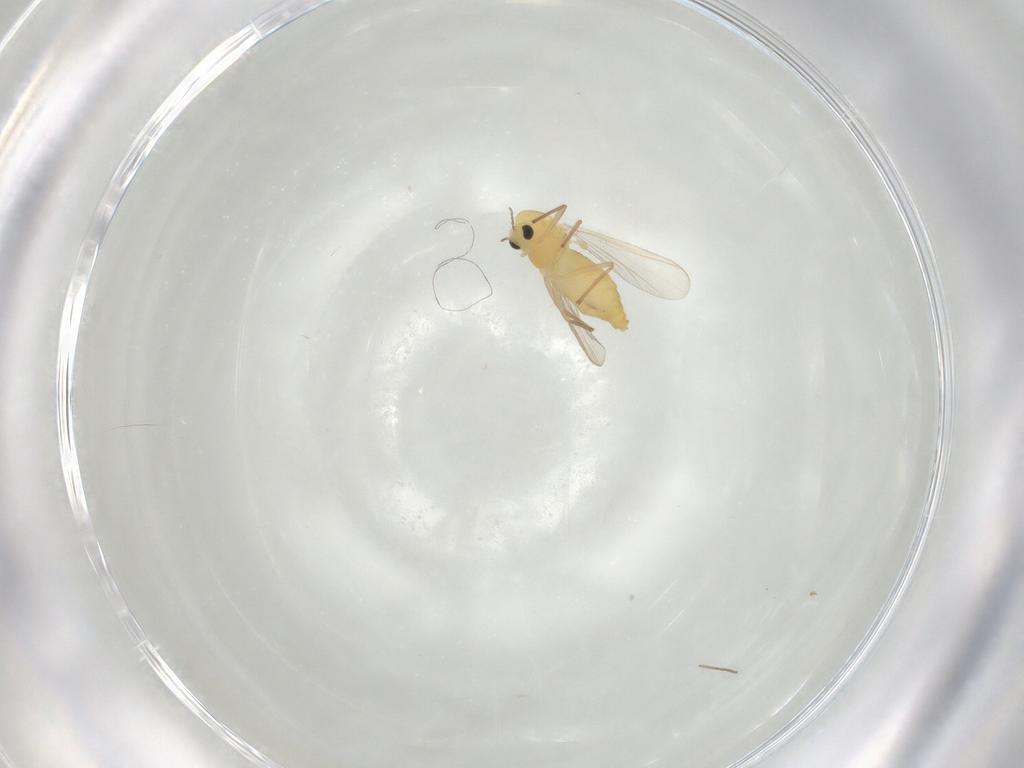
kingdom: Animalia
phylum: Arthropoda
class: Insecta
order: Diptera
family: Chironomidae
